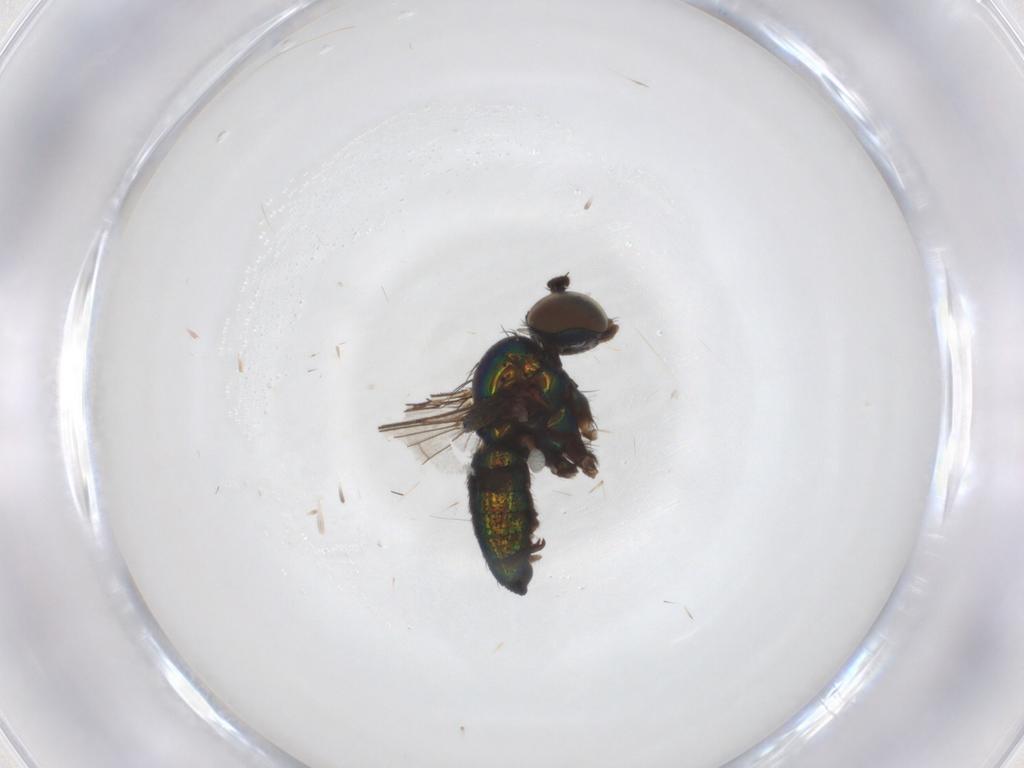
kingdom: Animalia
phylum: Arthropoda
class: Insecta
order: Diptera
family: Dolichopodidae
